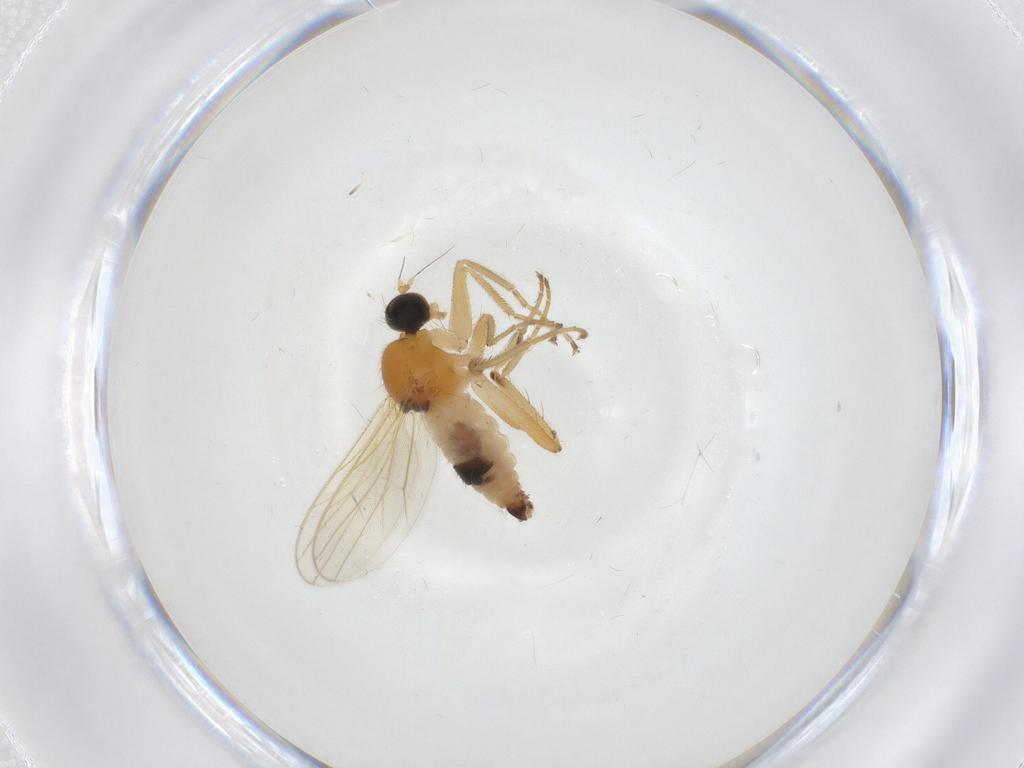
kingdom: Animalia
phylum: Arthropoda
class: Insecta
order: Diptera
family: Hybotidae
